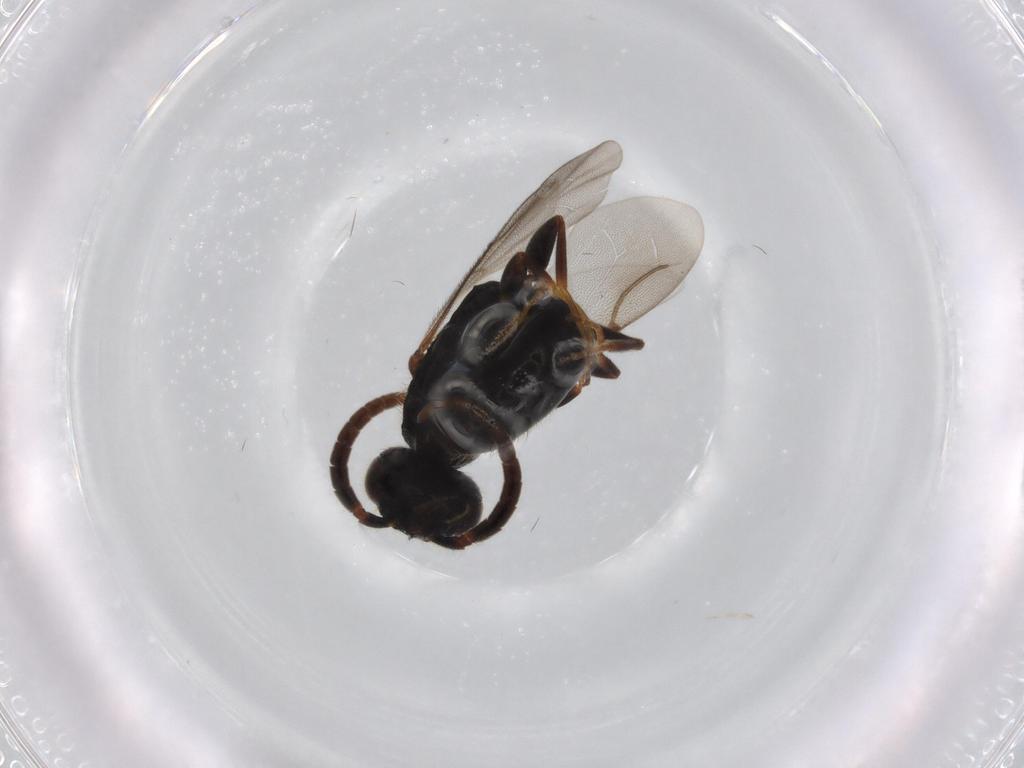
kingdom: Animalia
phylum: Arthropoda
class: Insecta
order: Hymenoptera
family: Bethylidae
